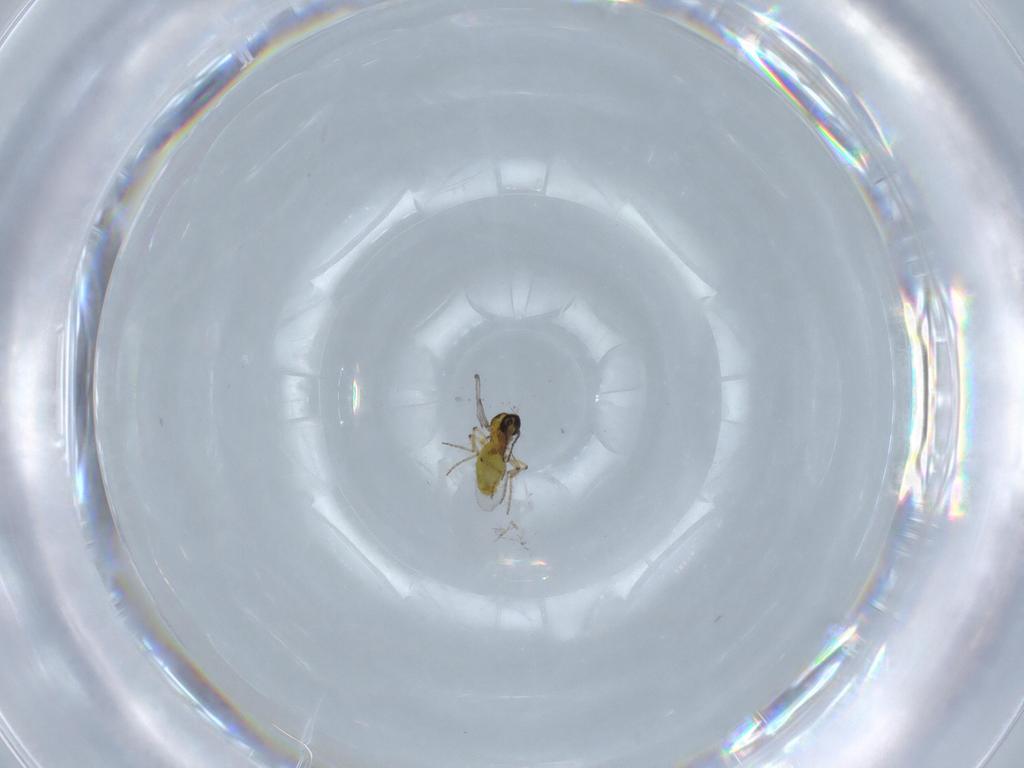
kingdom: Animalia
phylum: Arthropoda
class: Insecta
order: Diptera
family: Ceratopogonidae
